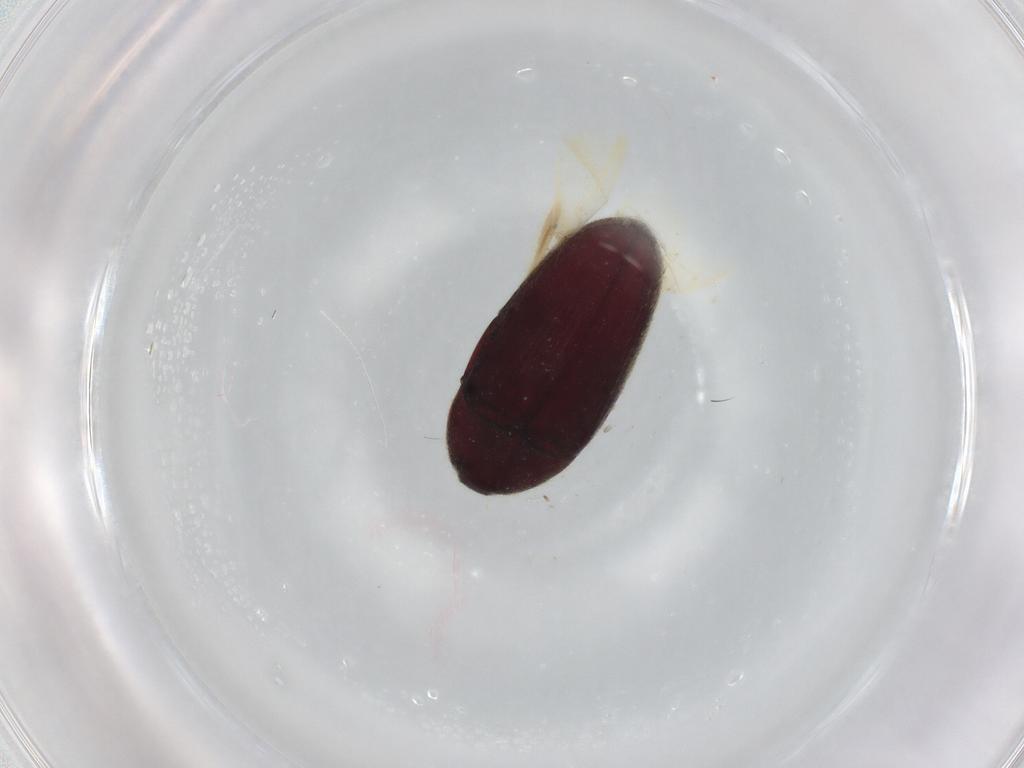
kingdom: Animalia
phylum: Arthropoda
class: Insecta
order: Coleoptera
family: Throscidae
